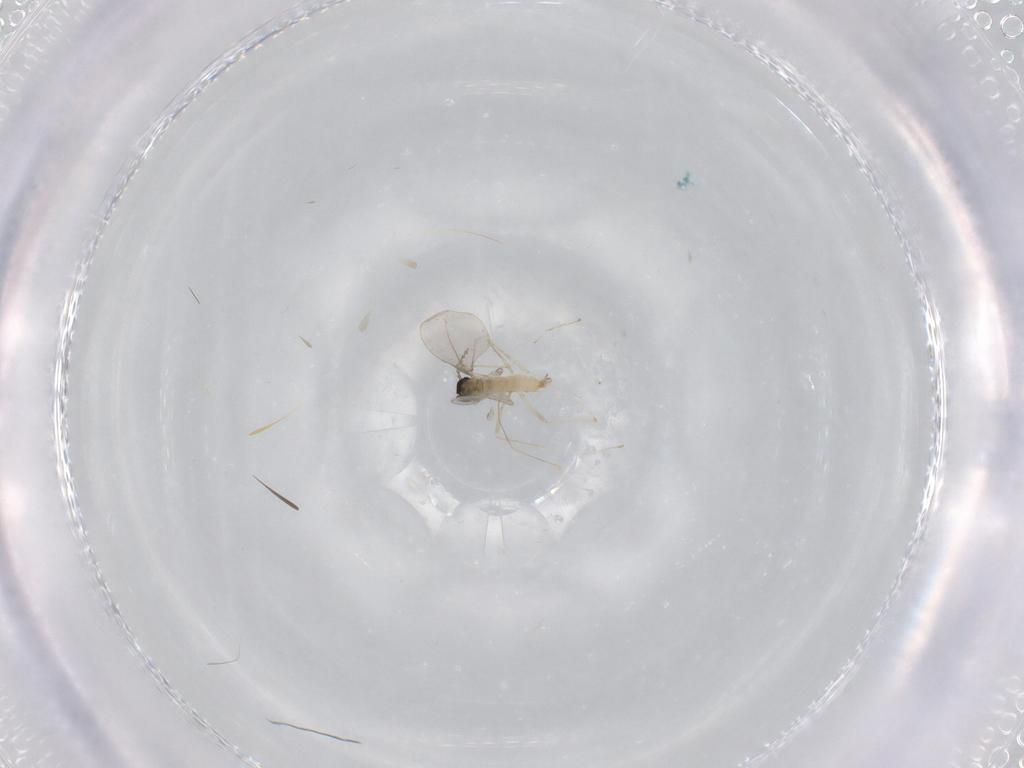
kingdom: Animalia
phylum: Arthropoda
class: Insecta
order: Diptera
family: Cecidomyiidae
